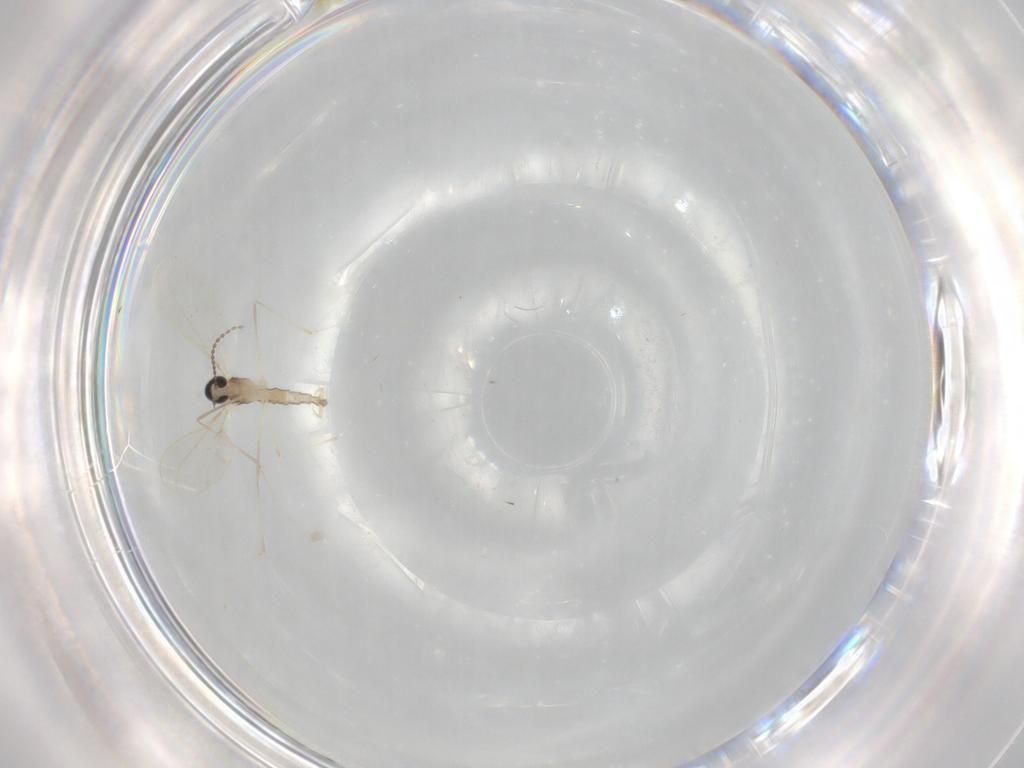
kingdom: Animalia
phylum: Arthropoda
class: Insecta
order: Diptera
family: Cecidomyiidae
